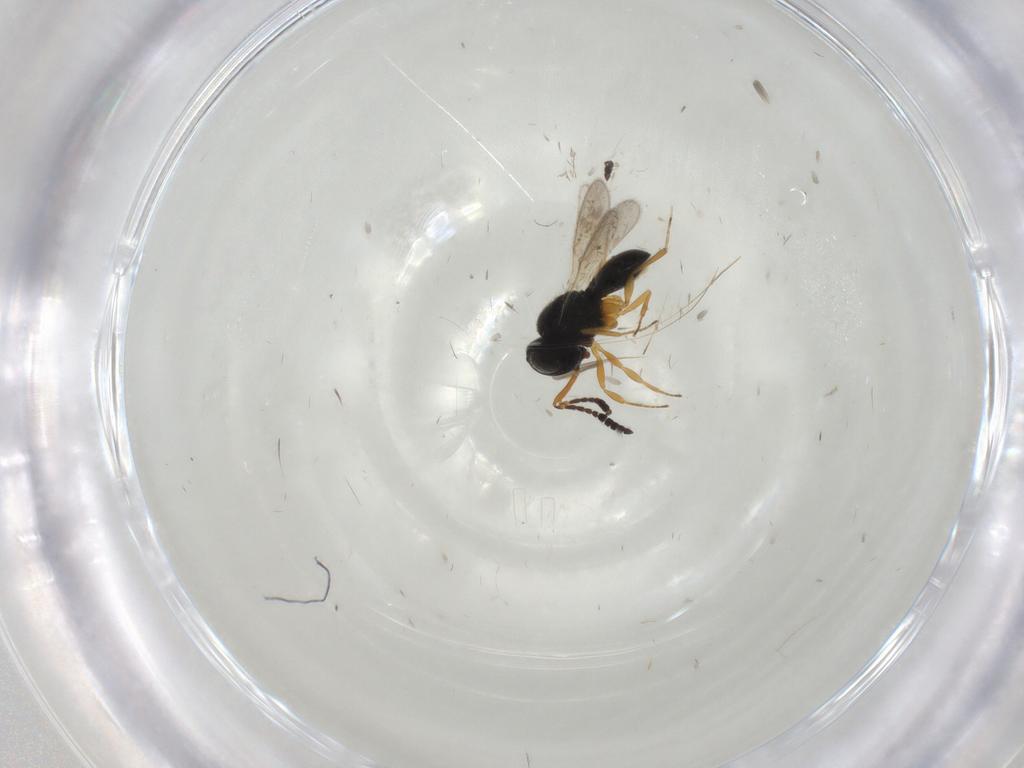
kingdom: Animalia
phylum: Arthropoda
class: Insecta
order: Hymenoptera
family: Scelionidae
